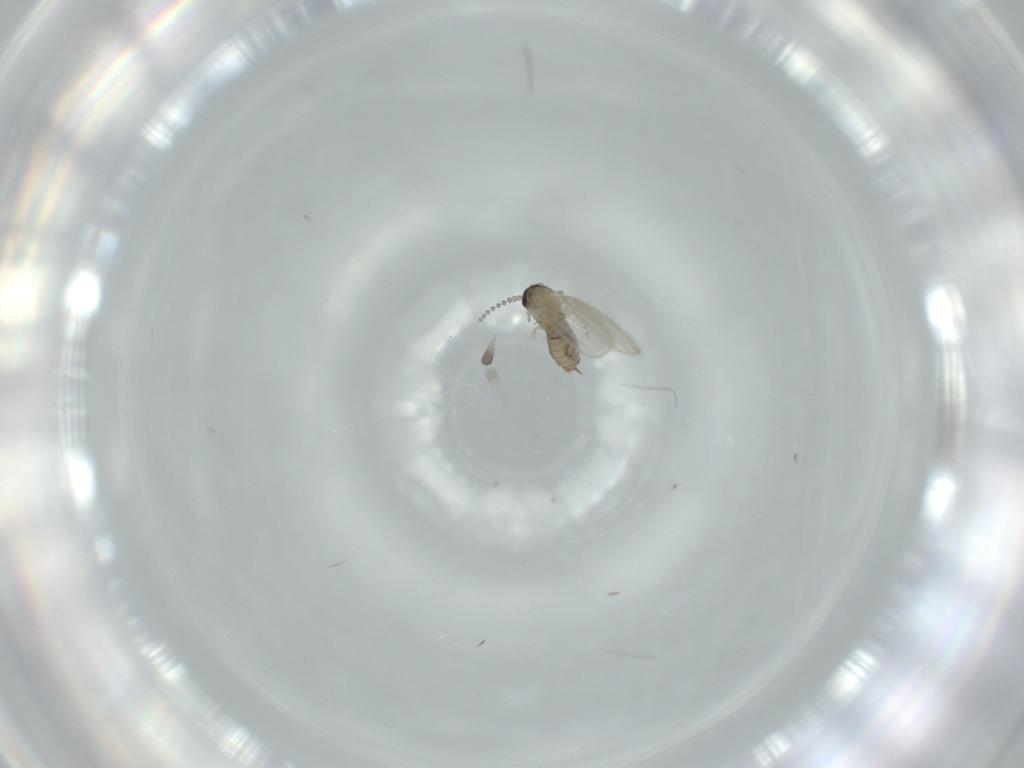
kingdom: Animalia
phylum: Arthropoda
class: Insecta
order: Diptera
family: Psychodidae
